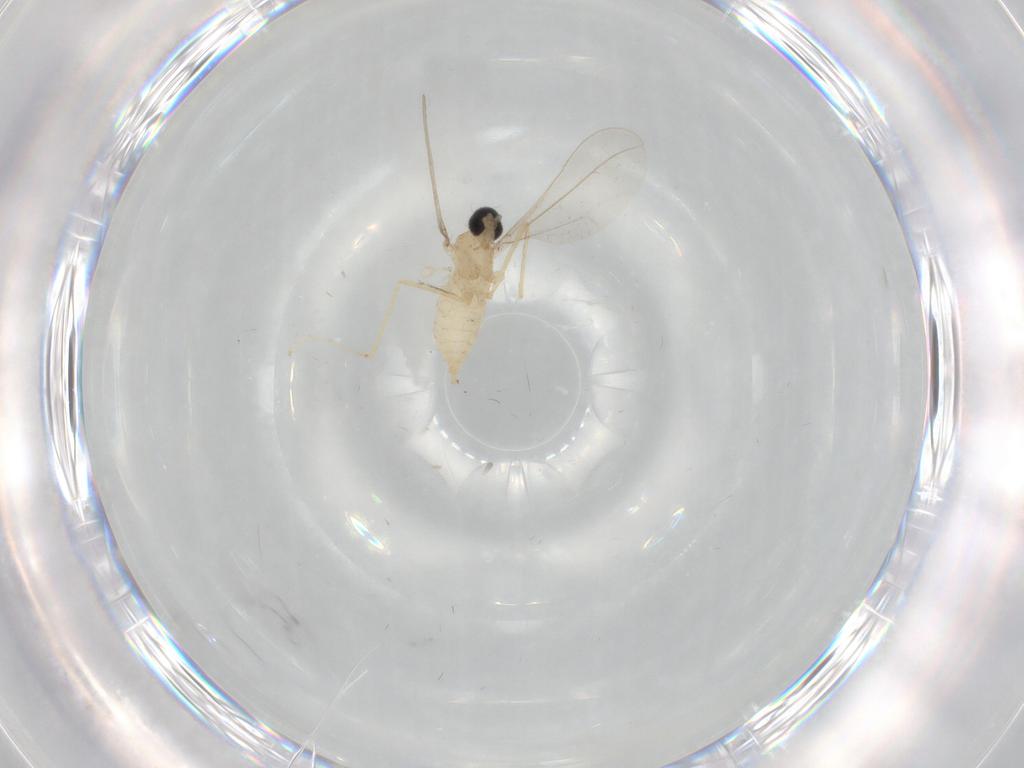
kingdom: Animalia
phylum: Arthropoda
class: Insecta
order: Diptera
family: Cecidomyiidae
